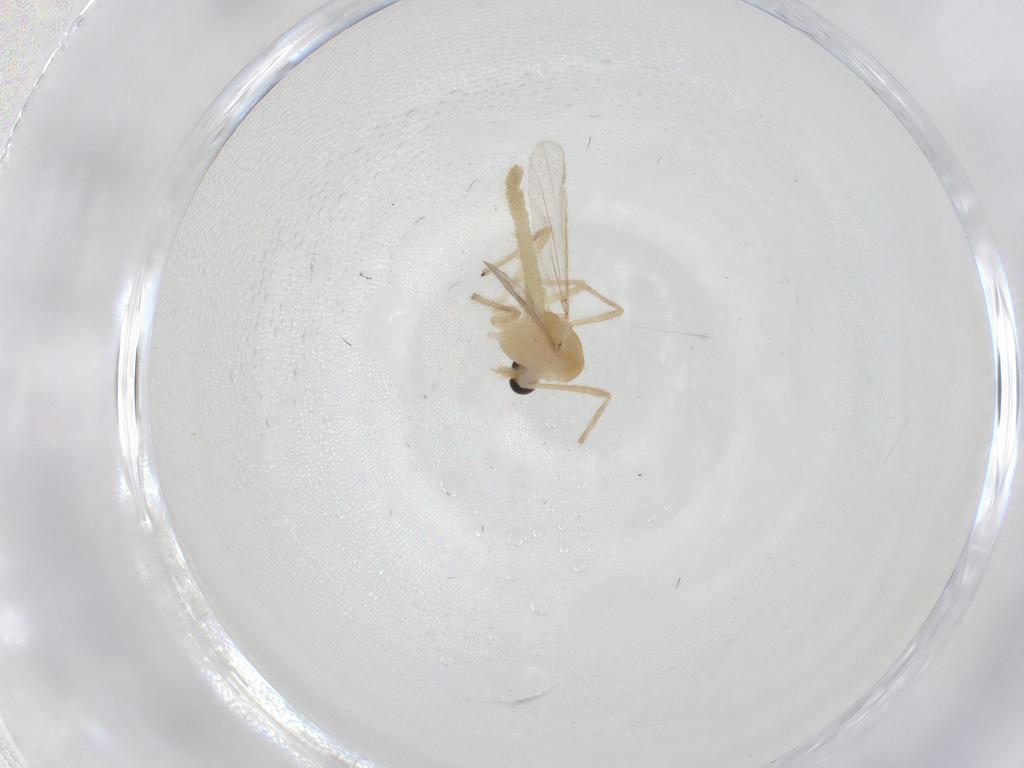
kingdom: Animalia
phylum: Arthropoda
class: Insecta
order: Diptera
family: Chironomidae
